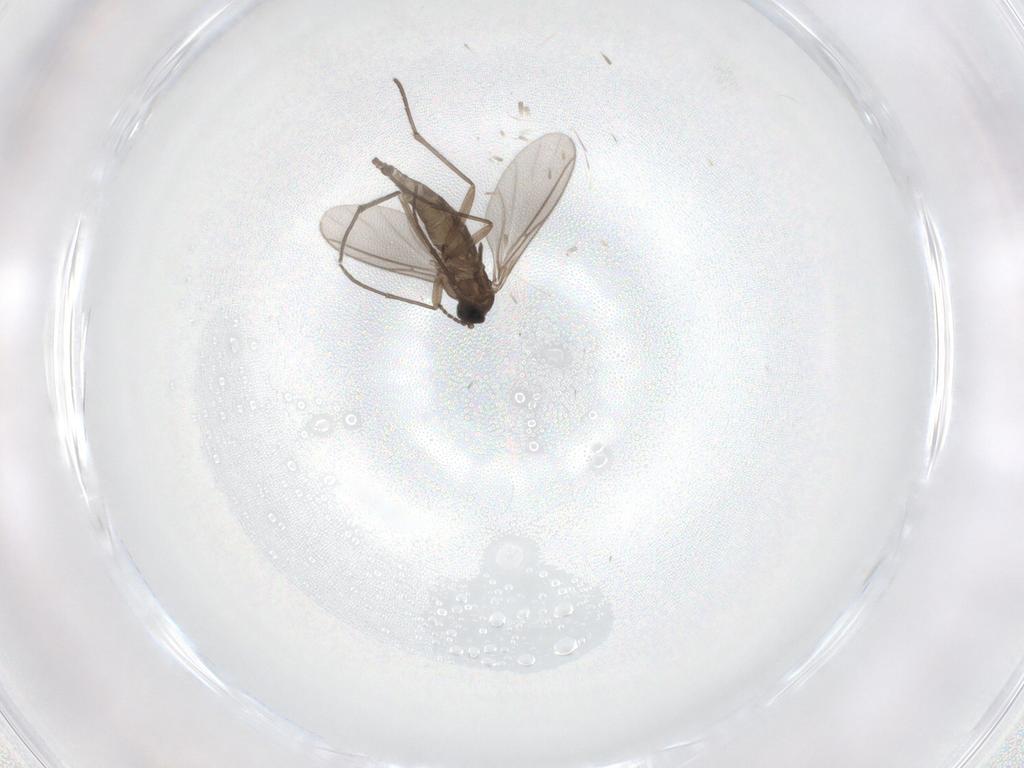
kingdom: Animalia
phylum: Arthropoda
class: Insecta
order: Diptera
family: Sciaridae
